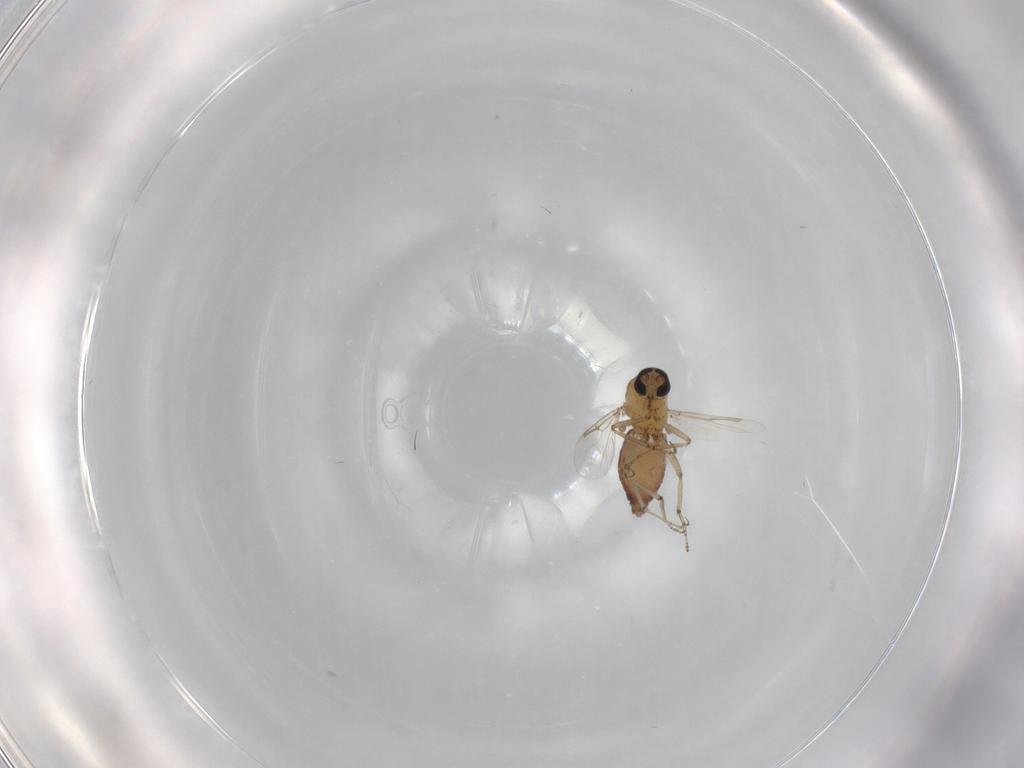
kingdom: Animalia
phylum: Arthropoda
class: Insecta
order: Diptera
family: Ceratopogonidae
